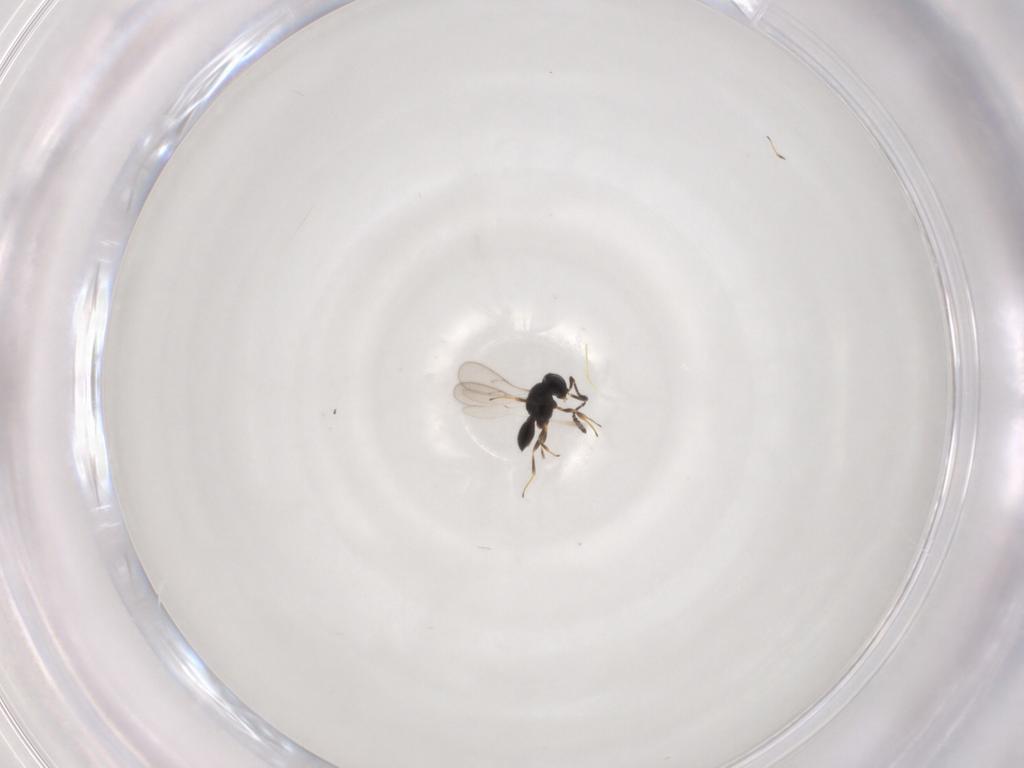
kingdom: Animalia
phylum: Arthropoda
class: Insecta
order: Hymenoptera
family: Scelionidae
